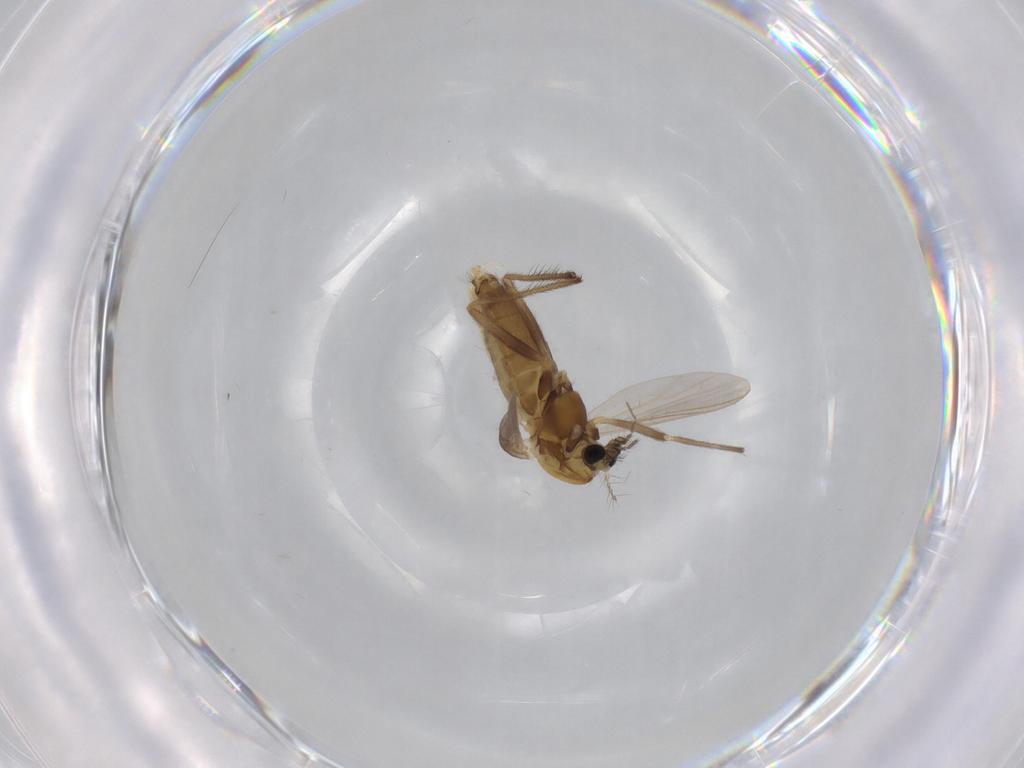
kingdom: Animalia
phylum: Arthropoda
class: Insecta
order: Diptera
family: Chironomidae
